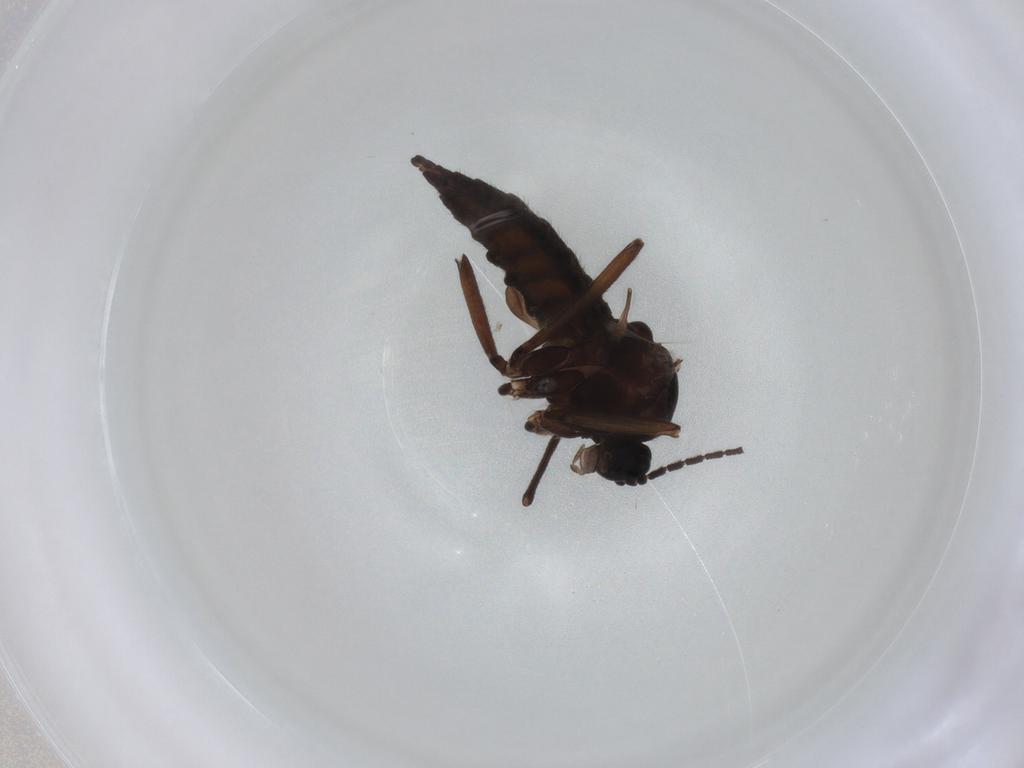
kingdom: Animalia
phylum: Arthropoda
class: Insecta
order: Diptera
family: Sciaridae
